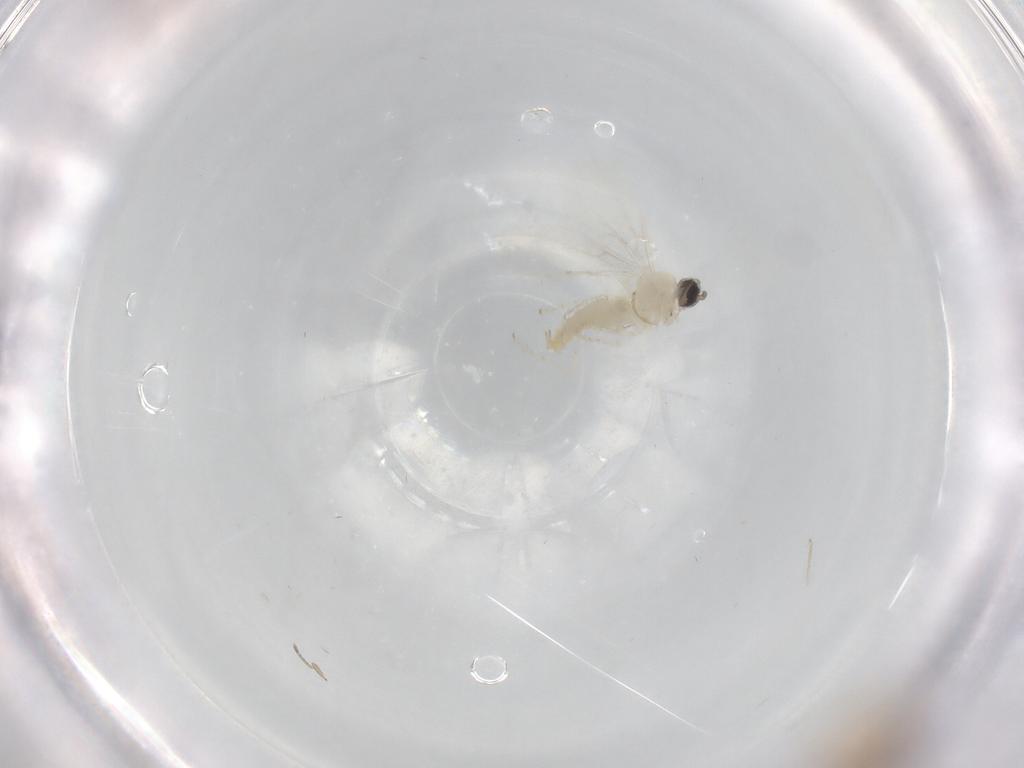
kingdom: Animalia
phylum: Arthropoda
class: Insecta
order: Diptera
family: Cecidomyiidae
